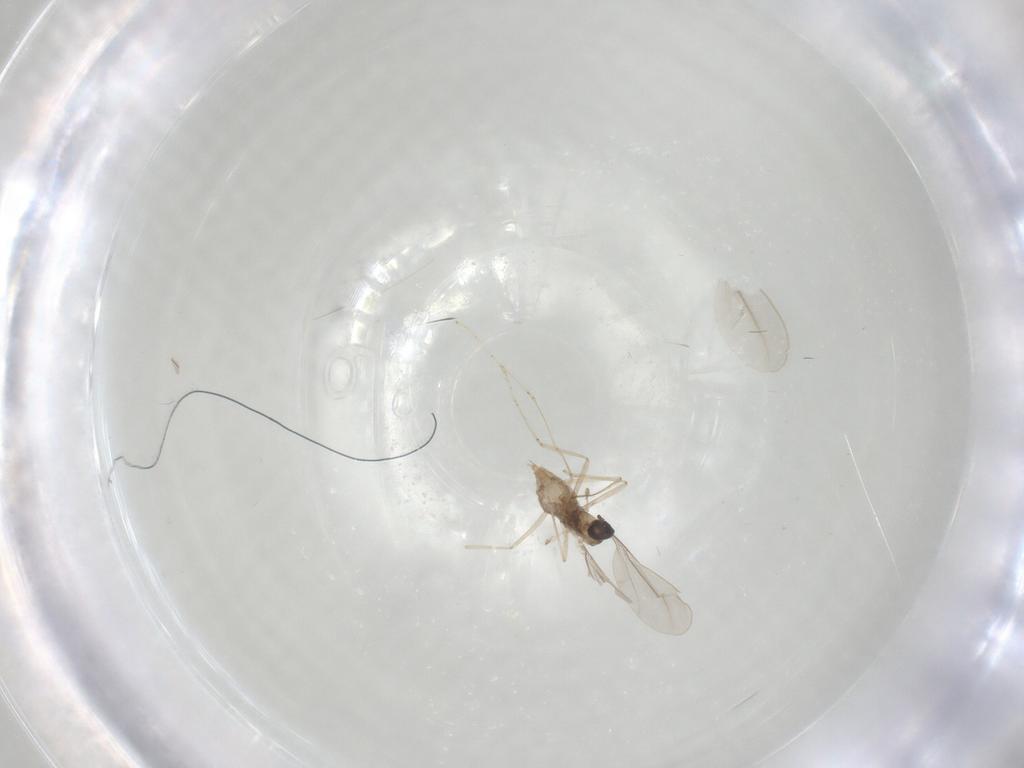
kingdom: Animalia
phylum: Arthropoda
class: Insecta
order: Diptera
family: Cecidomyiidae
